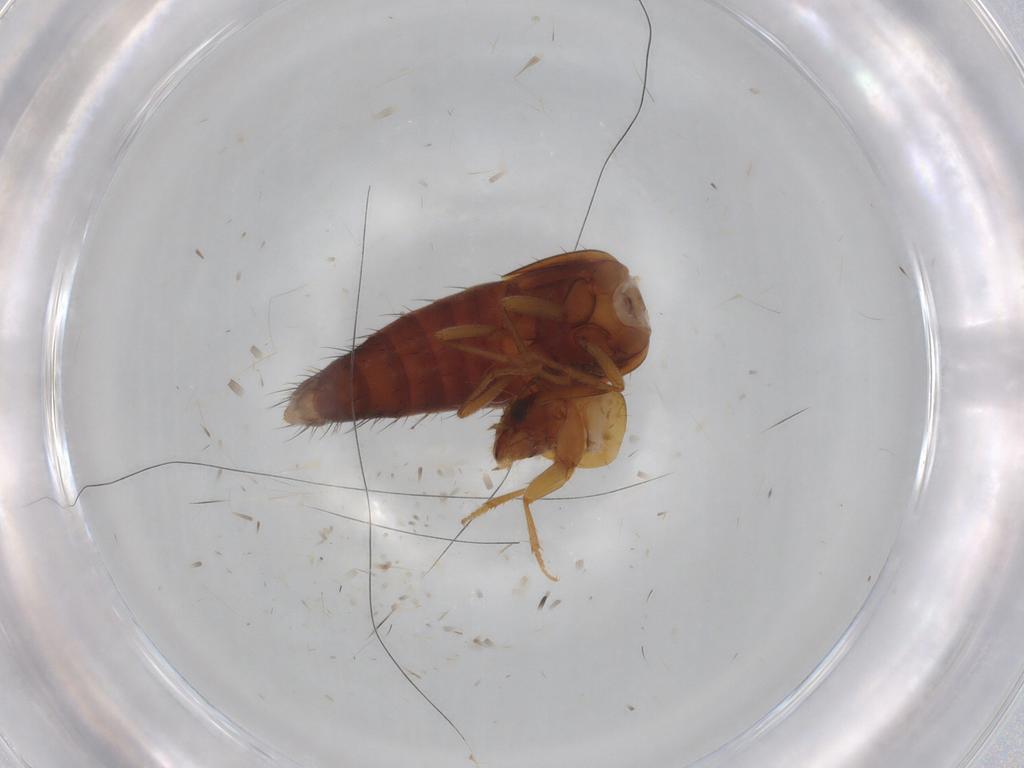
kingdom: Animalia
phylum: Arthropoda
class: Insecta
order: Coleoptera
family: Staphylinidae
